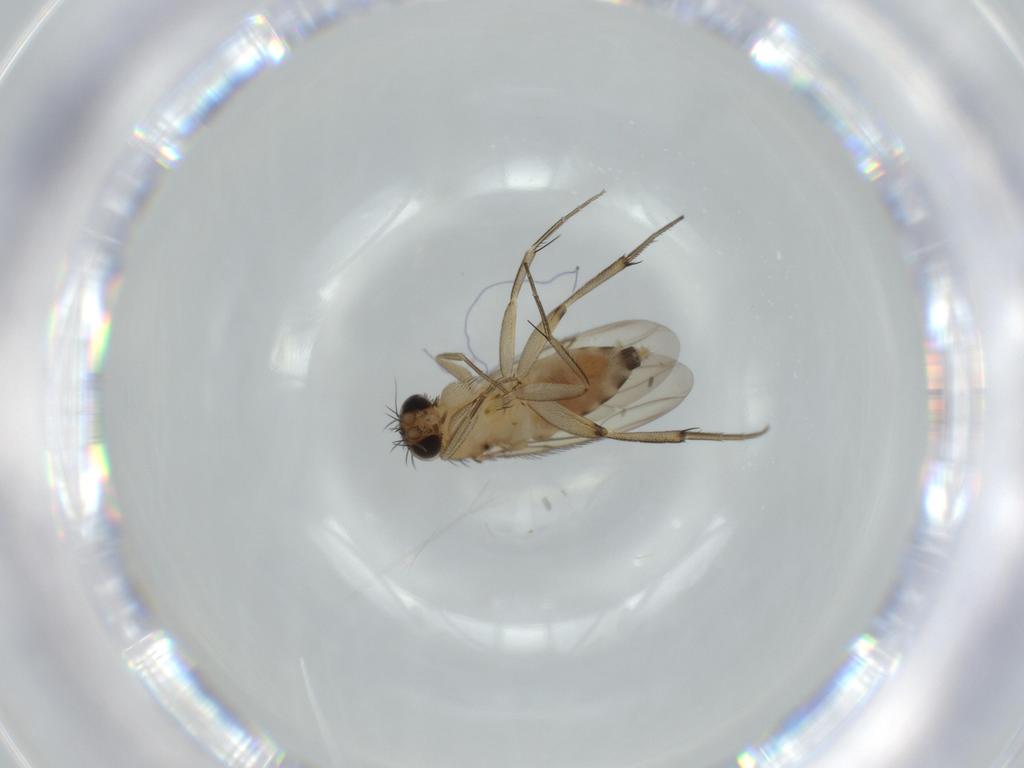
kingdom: Animalia
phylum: Arthropoda
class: Insecta
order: Diptera
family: Phoridae
